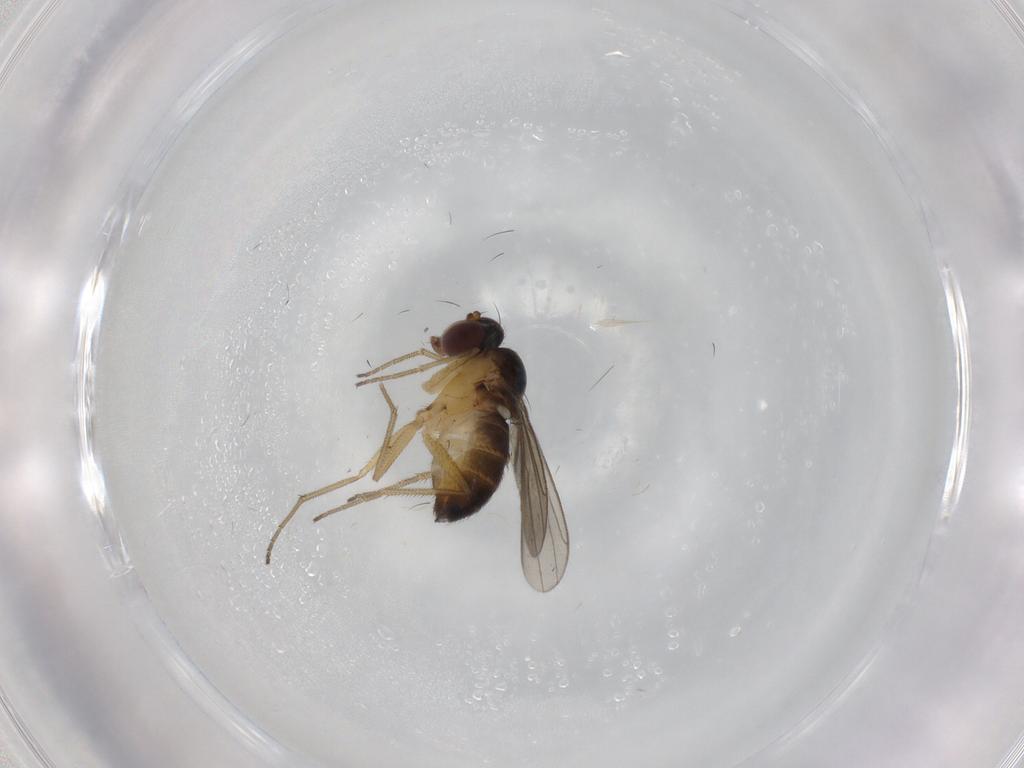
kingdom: Animalia
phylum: Arthropoda
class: Insecta
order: Diptera
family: Dolichopodidae
